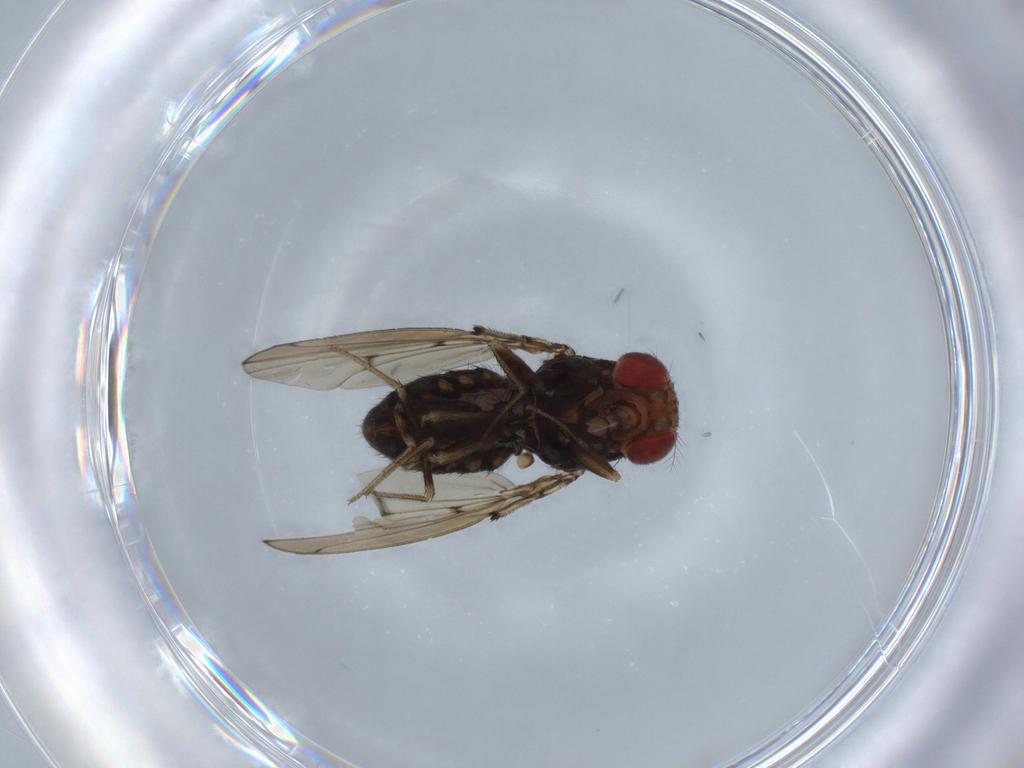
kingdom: Animalia
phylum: Arthropoda
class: Insecta
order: Diptera
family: Drosophilidae
